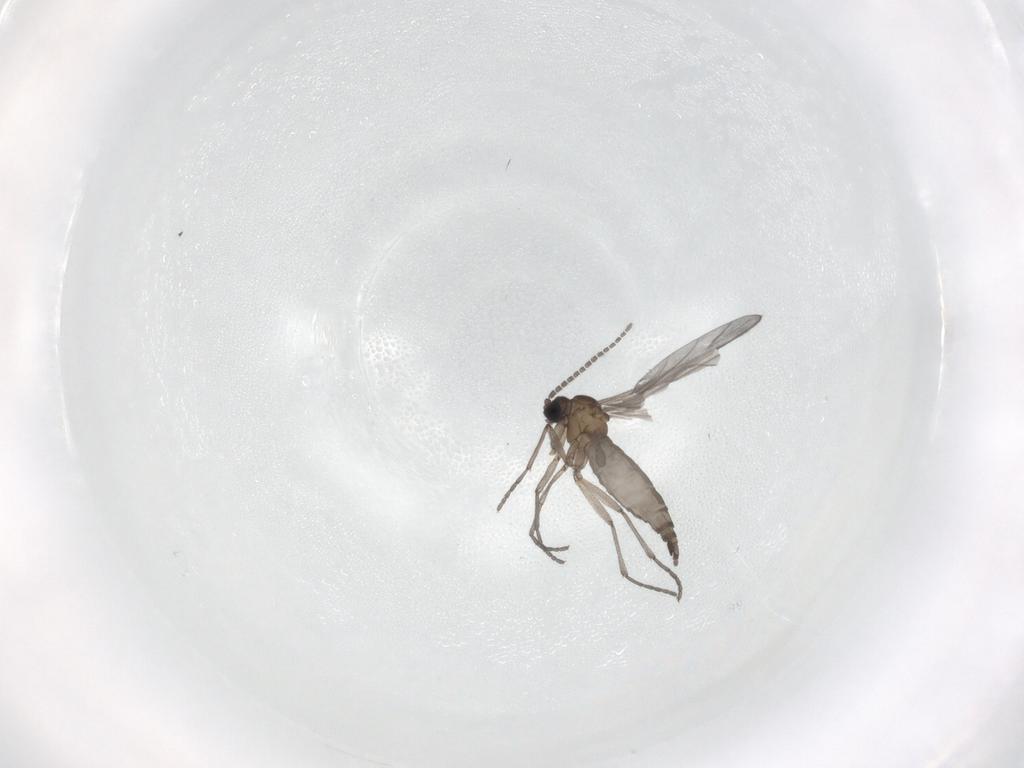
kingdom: Animalia
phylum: Arthropoda
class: Insecta
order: Diptera
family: Sciaridae
